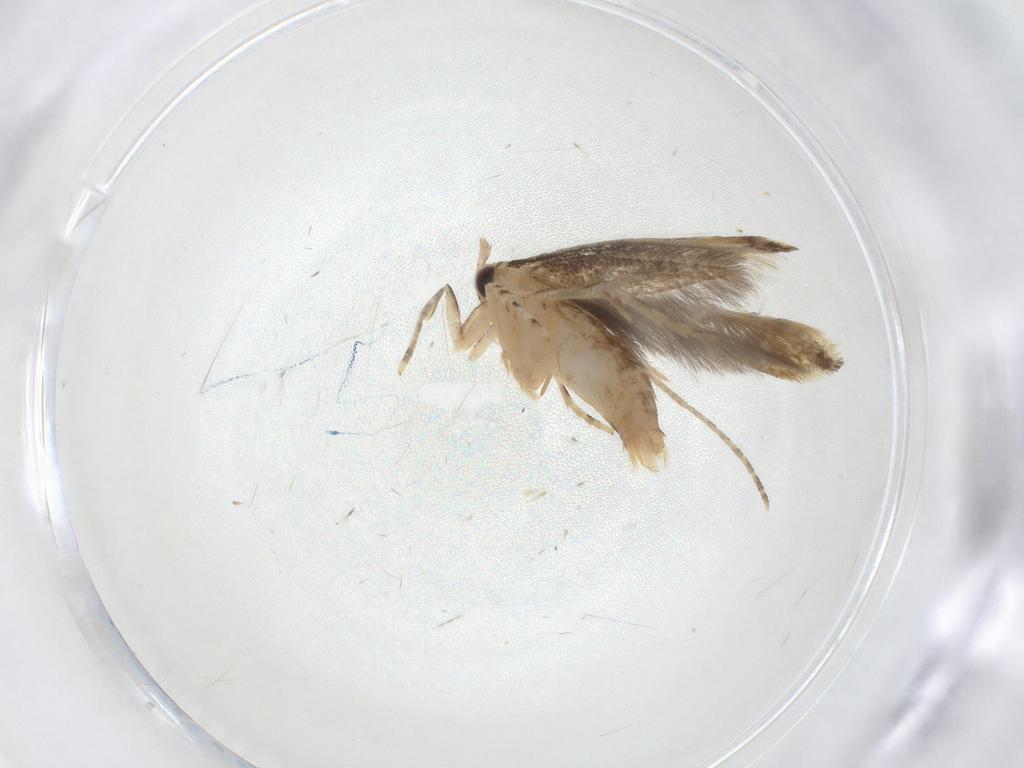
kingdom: Animalia
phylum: Arthropoda
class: Insecta
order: Lepidoptera
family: Momphidae
